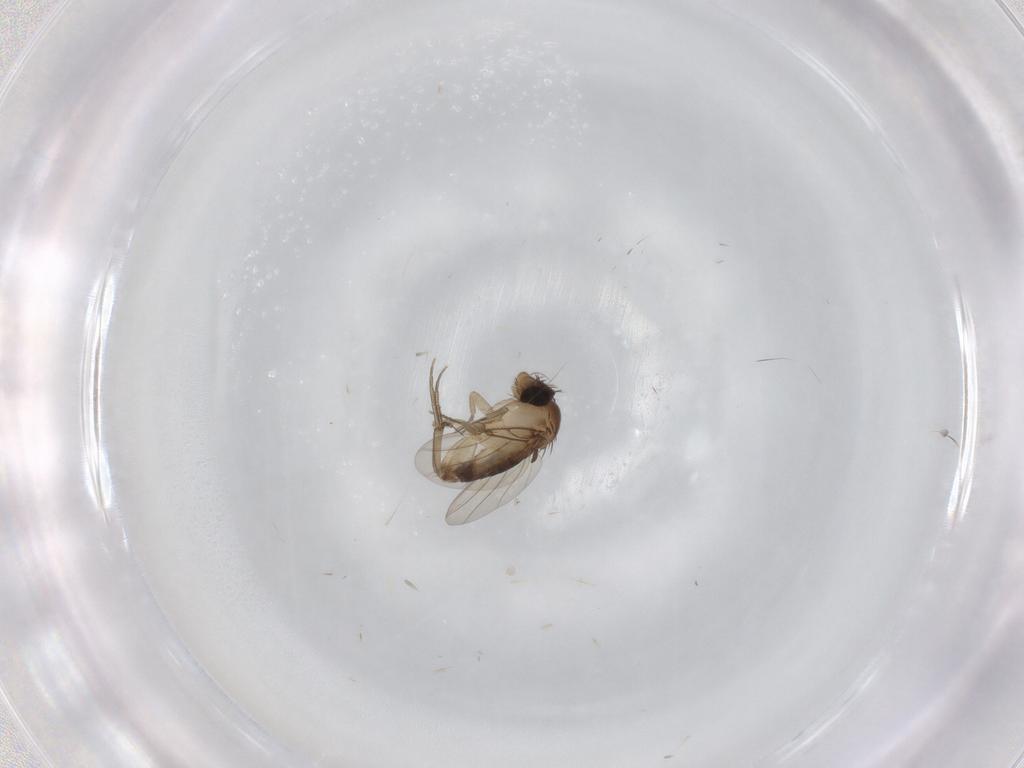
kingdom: Animalia
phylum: Arthropoda
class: Insecta
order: Diptera
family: Phoridae
